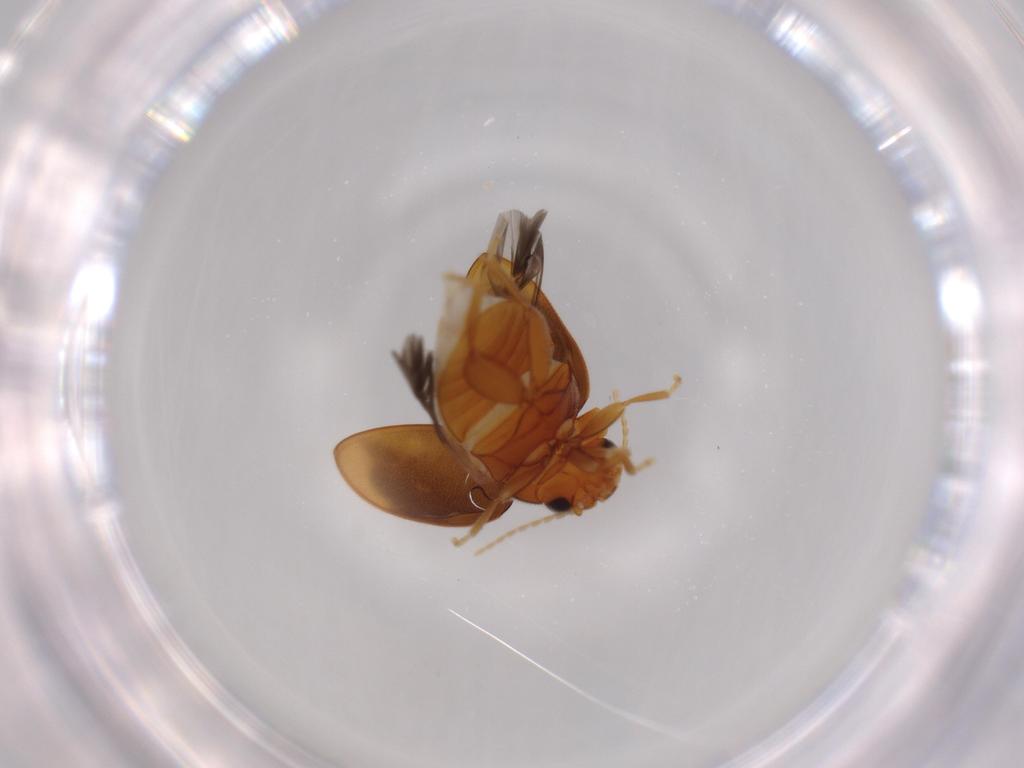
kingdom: Animalia
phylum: Arthropoda
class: Insecta
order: Coleoptera
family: Scirtidae
